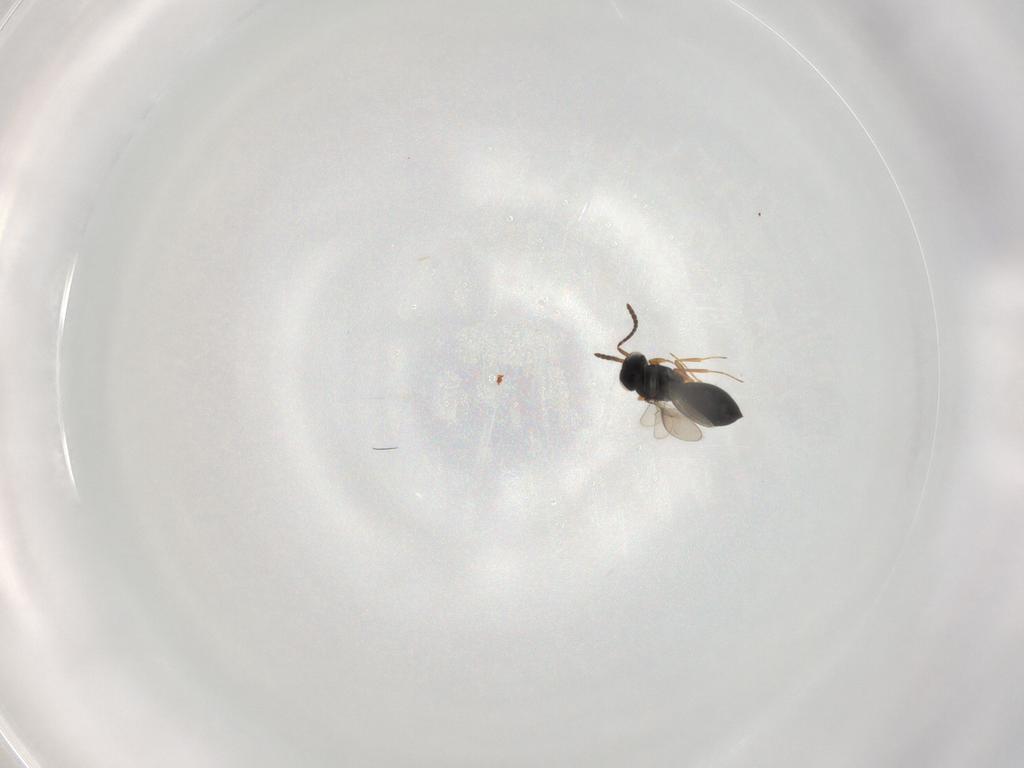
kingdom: Animalia
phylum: Arthropoda
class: Insecta
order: Hymenoptera
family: Scelionidae
